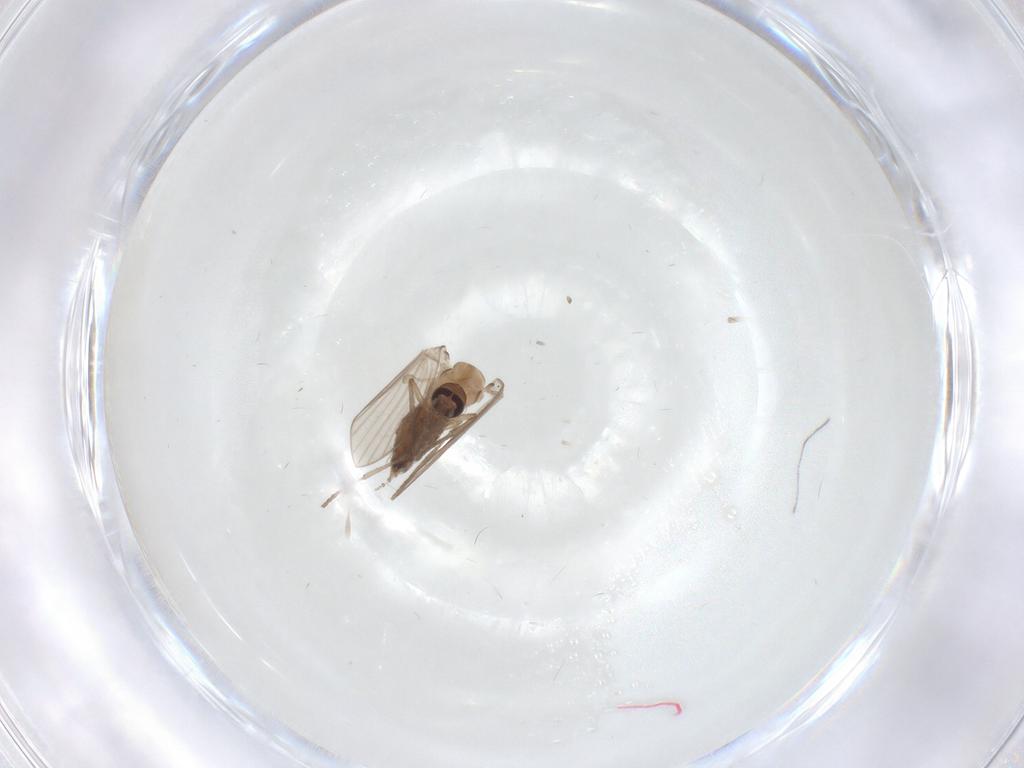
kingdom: Animalia
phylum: Arthropoda
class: Insecta
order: Diptera
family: Psychodidae
